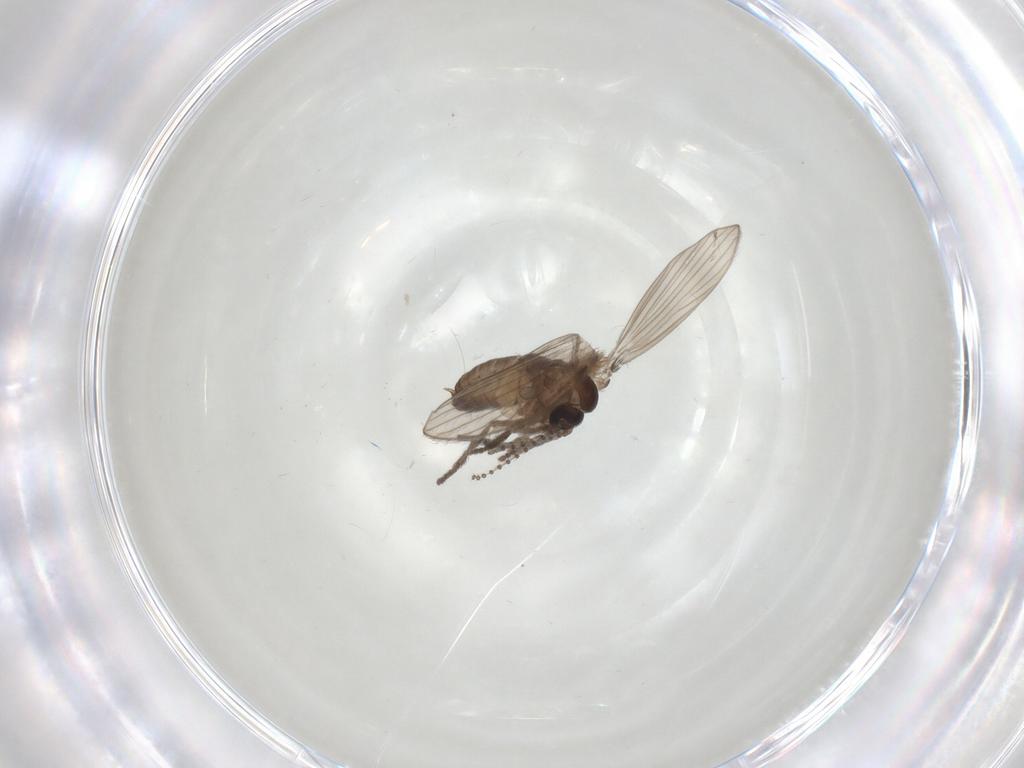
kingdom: Animalia
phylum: Arthropoda
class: Insecta
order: Diptera
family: Psychodidae
